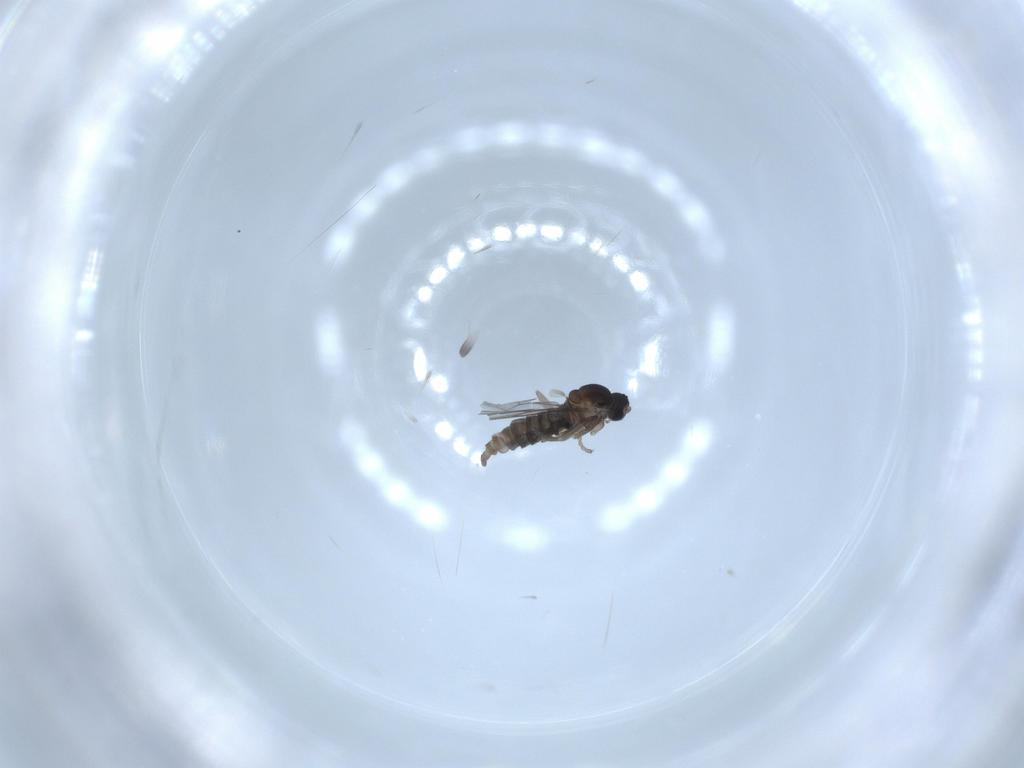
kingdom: Animalia
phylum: Arthropoda
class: Insecta
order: Diptera
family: Cecidomyiidae
